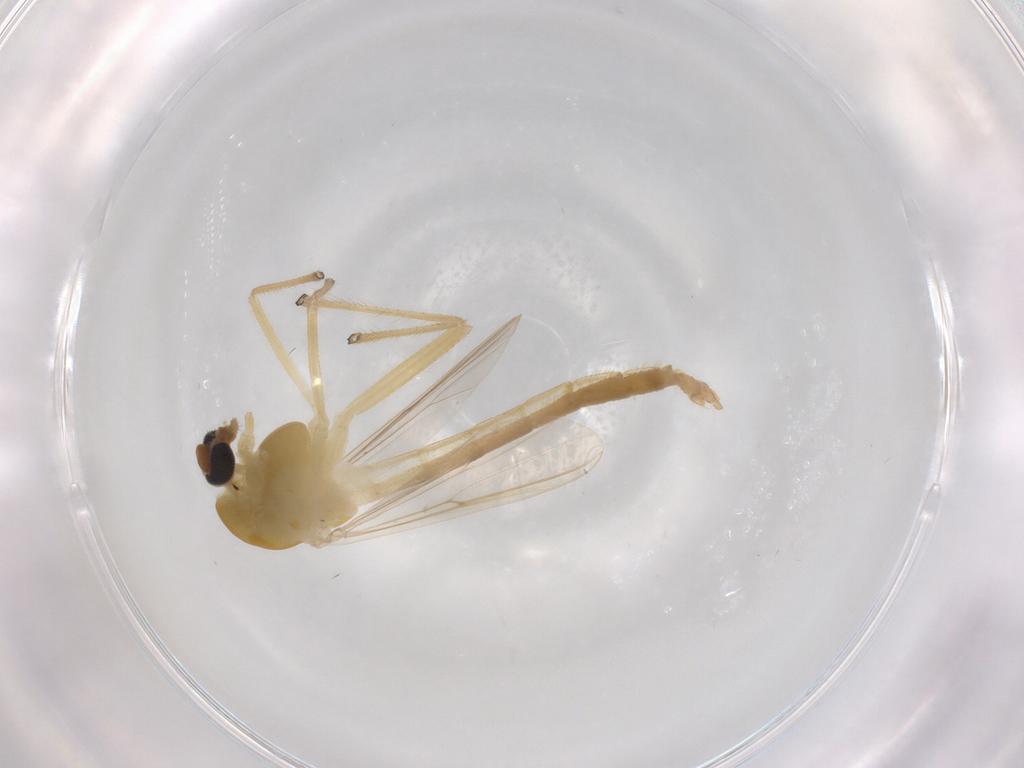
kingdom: Animalia
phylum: Arthropoda
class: Insecta
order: Diptera
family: Chironomidae
